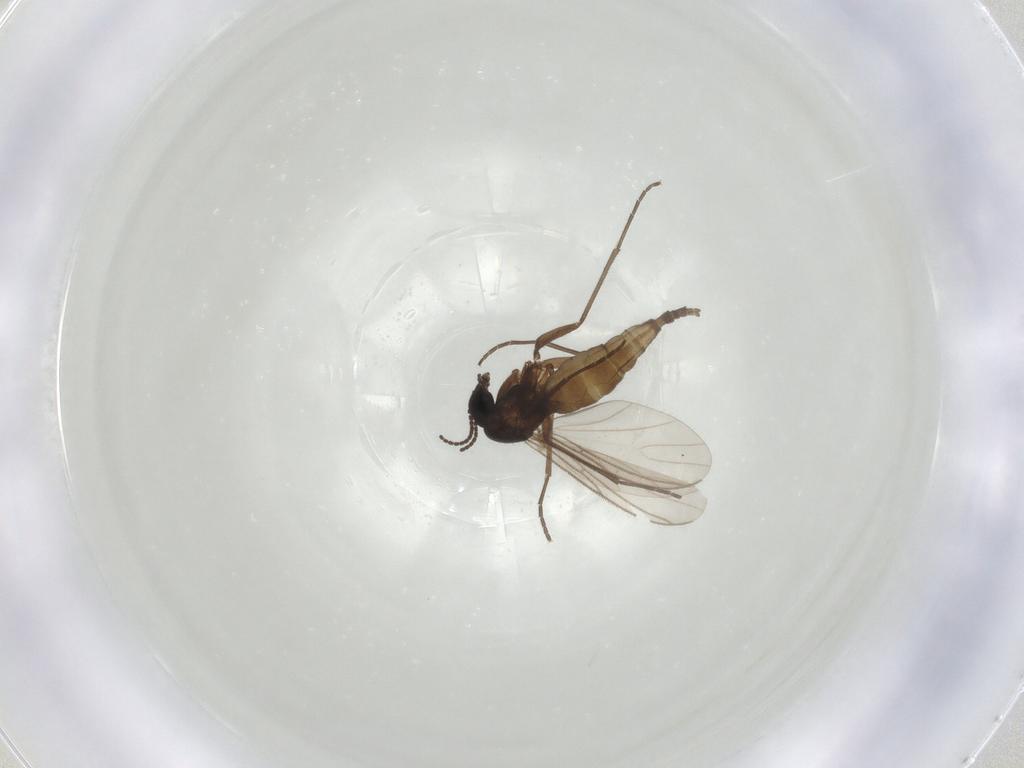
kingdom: Animalia
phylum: Arthropoda
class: Insecta
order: Diptera
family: Sciaridae
